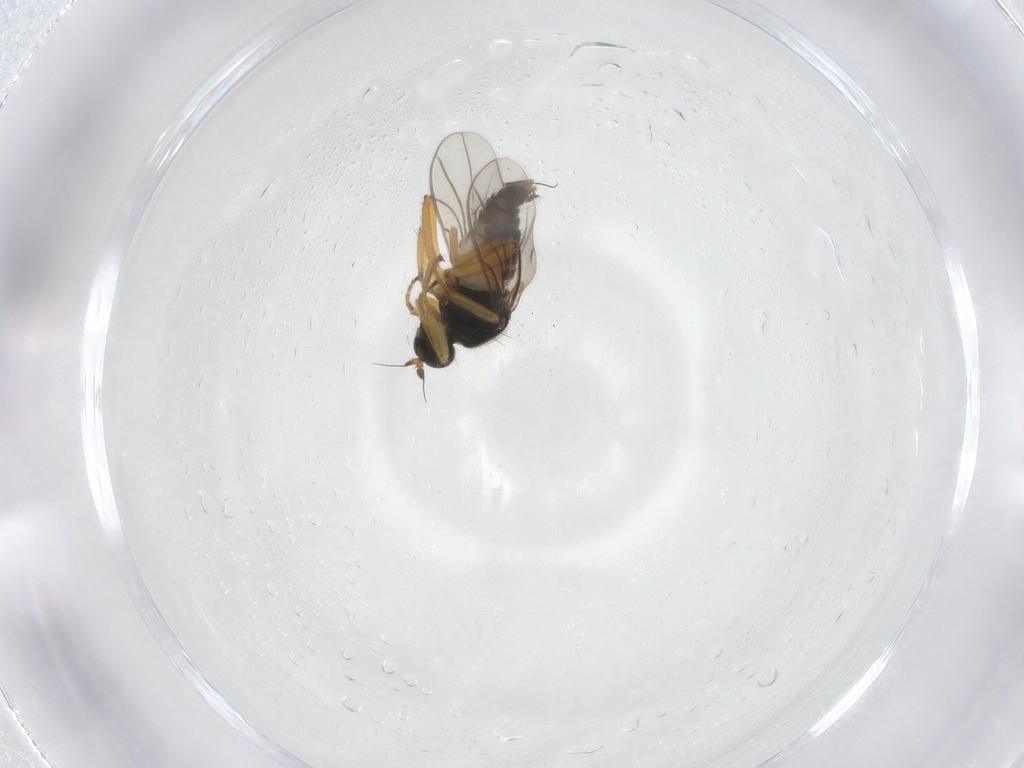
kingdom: Animalia
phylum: Arthropoda
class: Insecta
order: Diptera
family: Hybotidae
